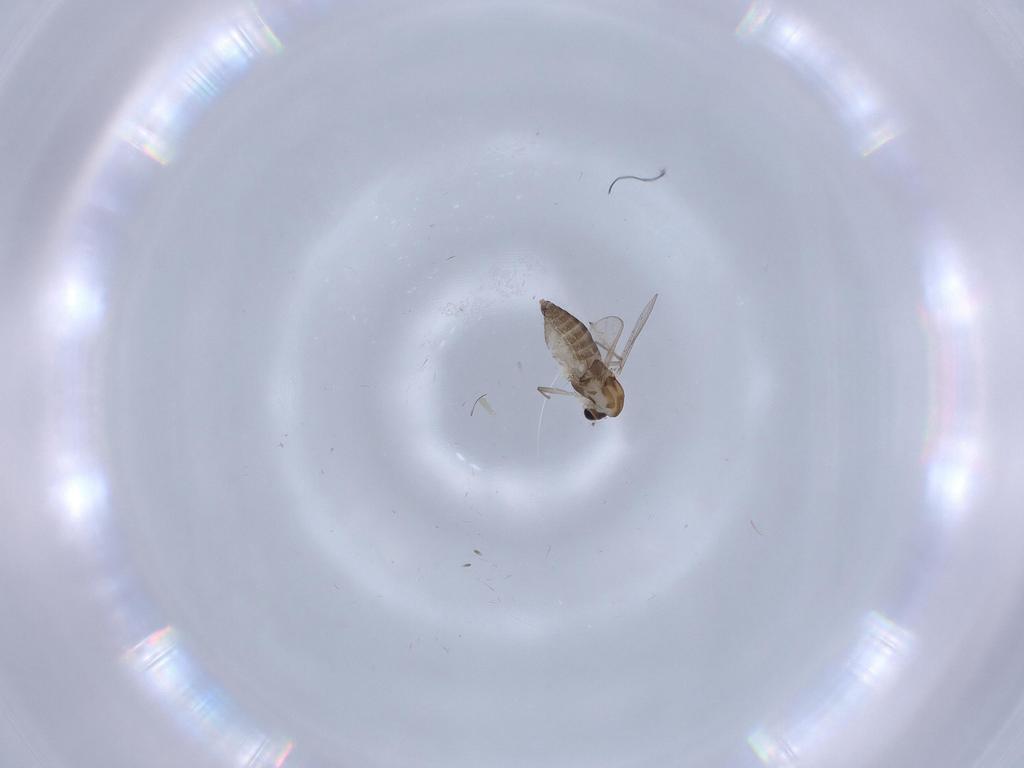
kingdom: Animalia
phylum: Arthropoda
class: Insecta
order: Diptera
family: Chironomidae
